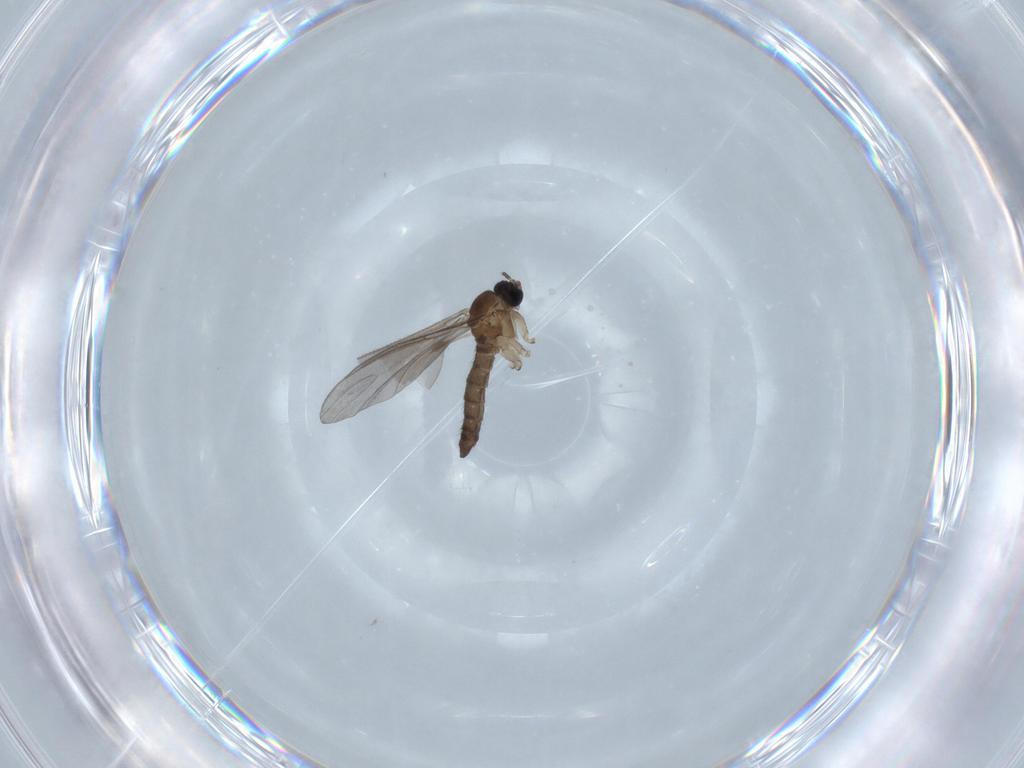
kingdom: Animalia
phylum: Arthropoda
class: Insecta
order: Diptera
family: Sciaridae
